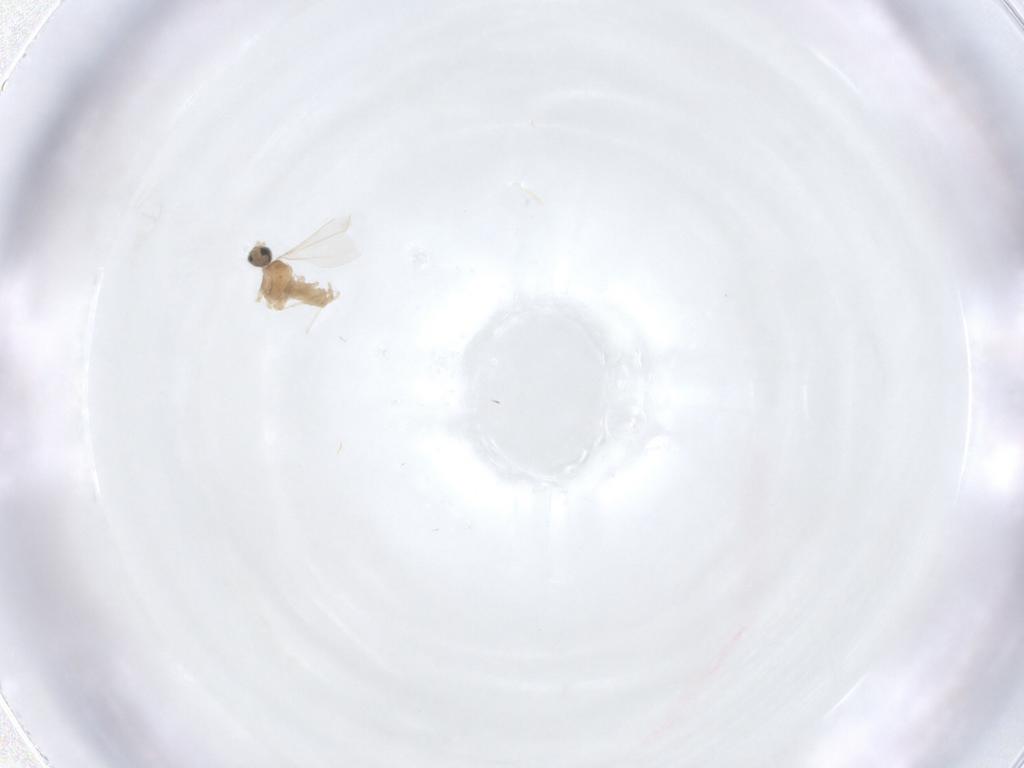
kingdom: Animalia
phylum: Arthropoda
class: Insecta
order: Diptera
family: Cecidomyiidae
